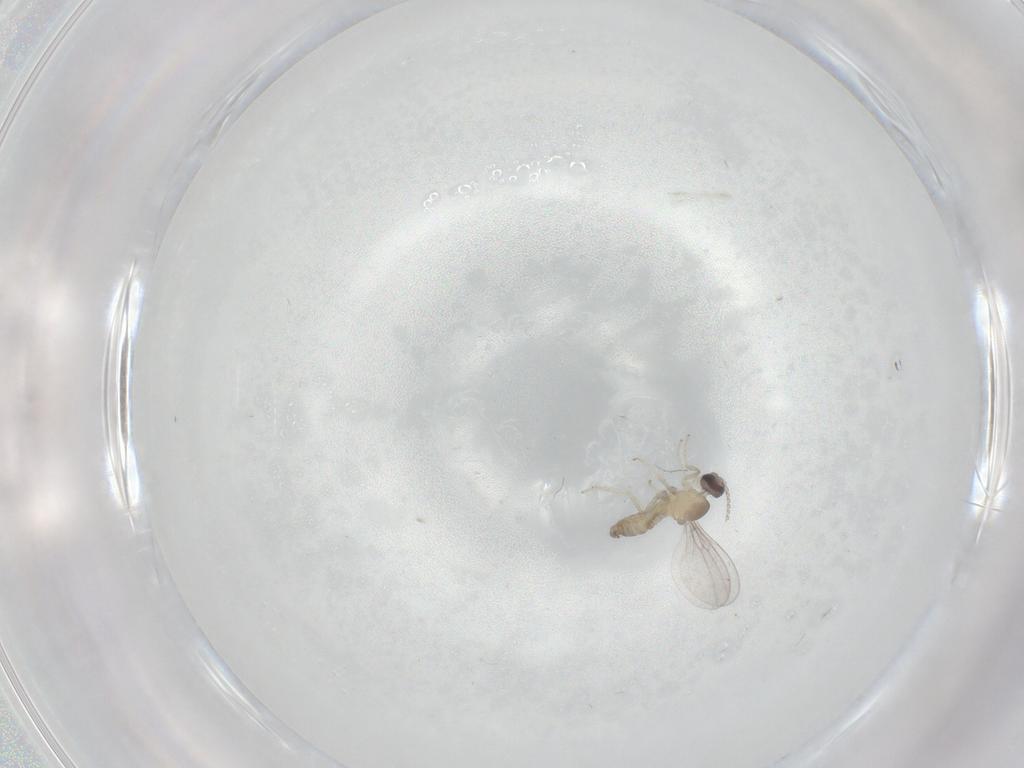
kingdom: Animalia
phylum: Arthropoda
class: Insecta
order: Diptera
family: Cecidomyiidae
